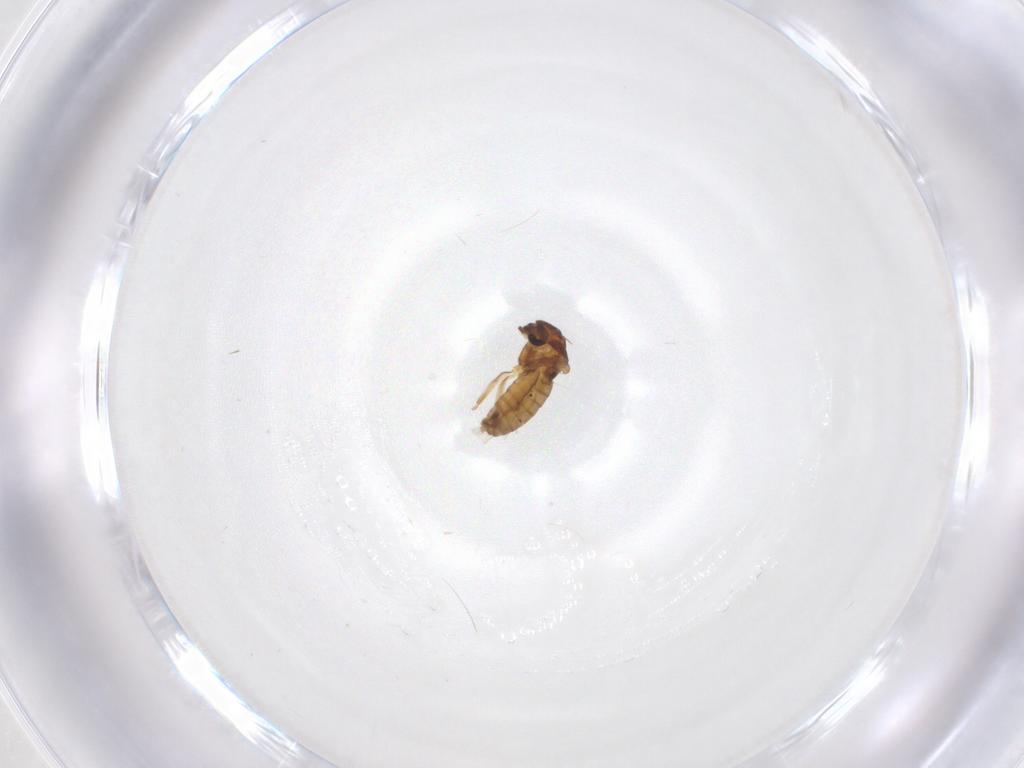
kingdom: Animalia
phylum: Arthropoda
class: Insecta
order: Diptera
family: Chironomidae
